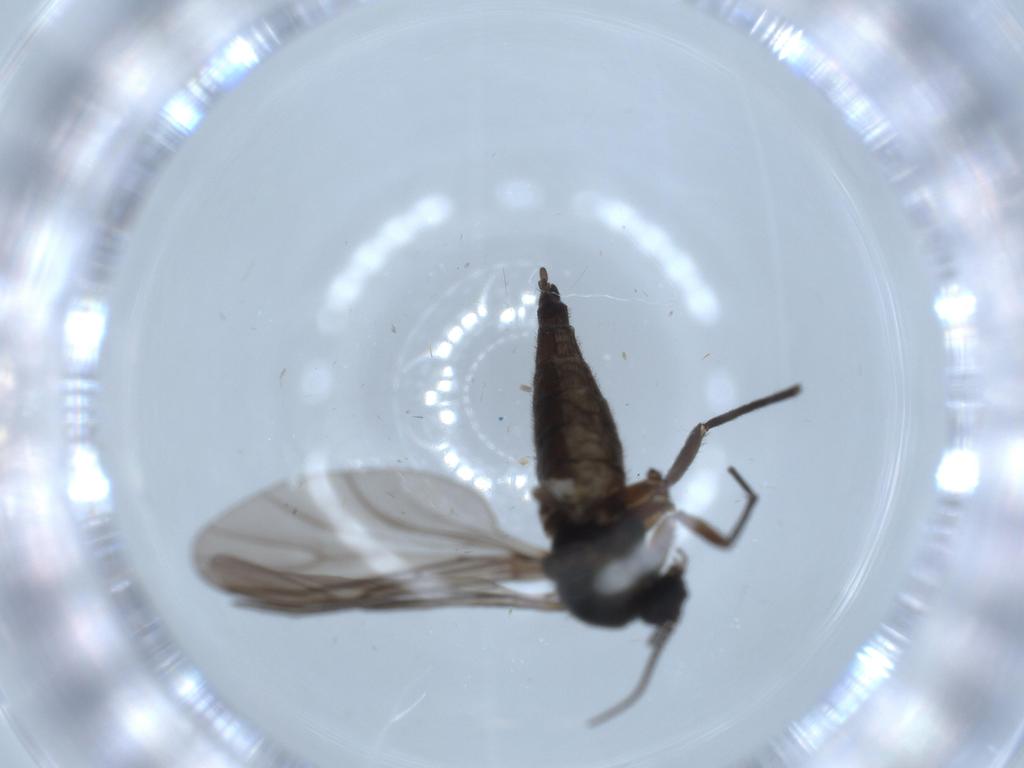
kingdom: Animalia
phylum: Arthropoda
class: Insecta
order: Diptera
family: Sciaridae
